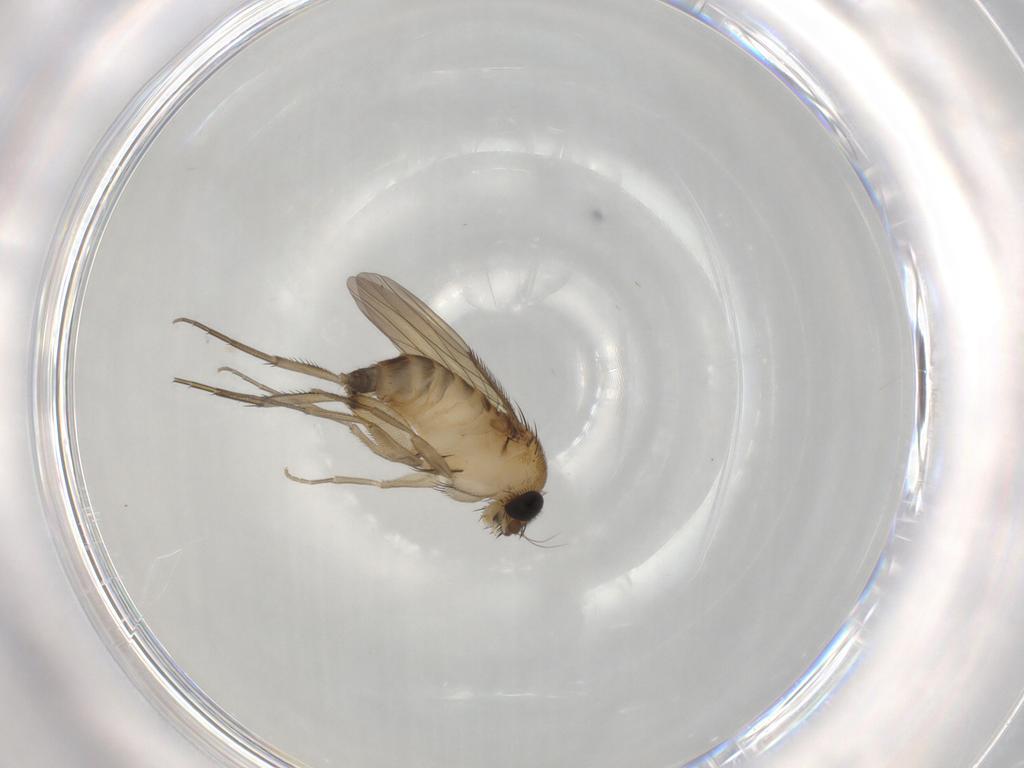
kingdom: Animalia
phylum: Arthropoda
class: Insecta
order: Diptera
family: Phoridae
